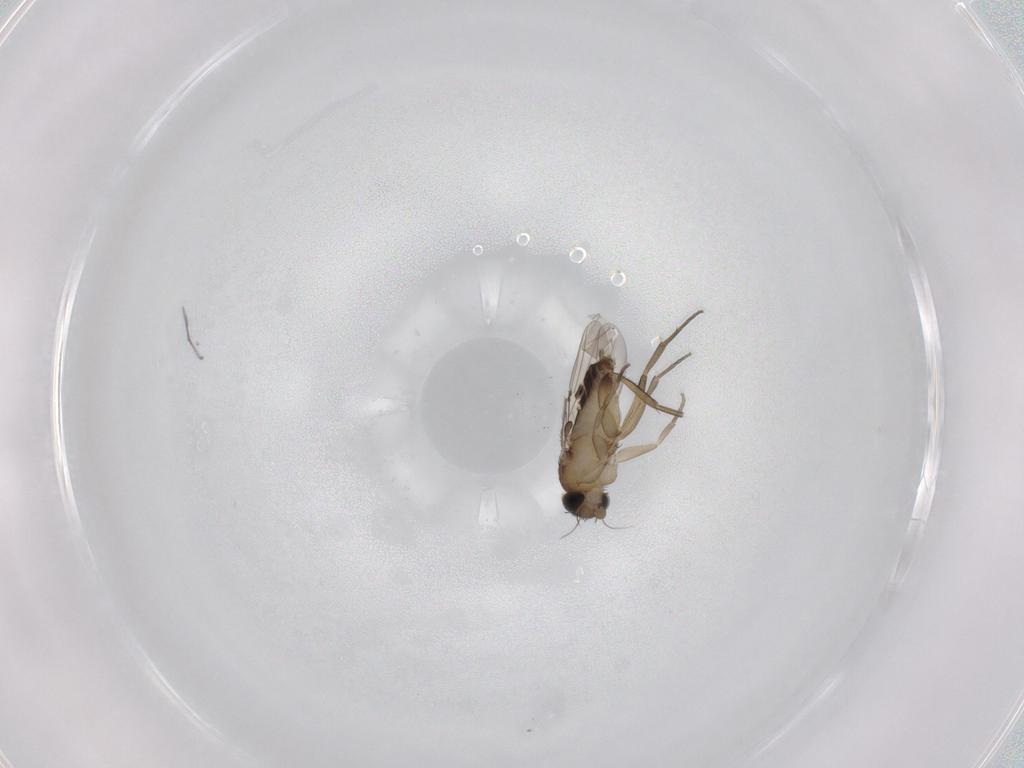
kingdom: Animalia
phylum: Arthropoda
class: Insecta
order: Diptera
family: Phoridae
